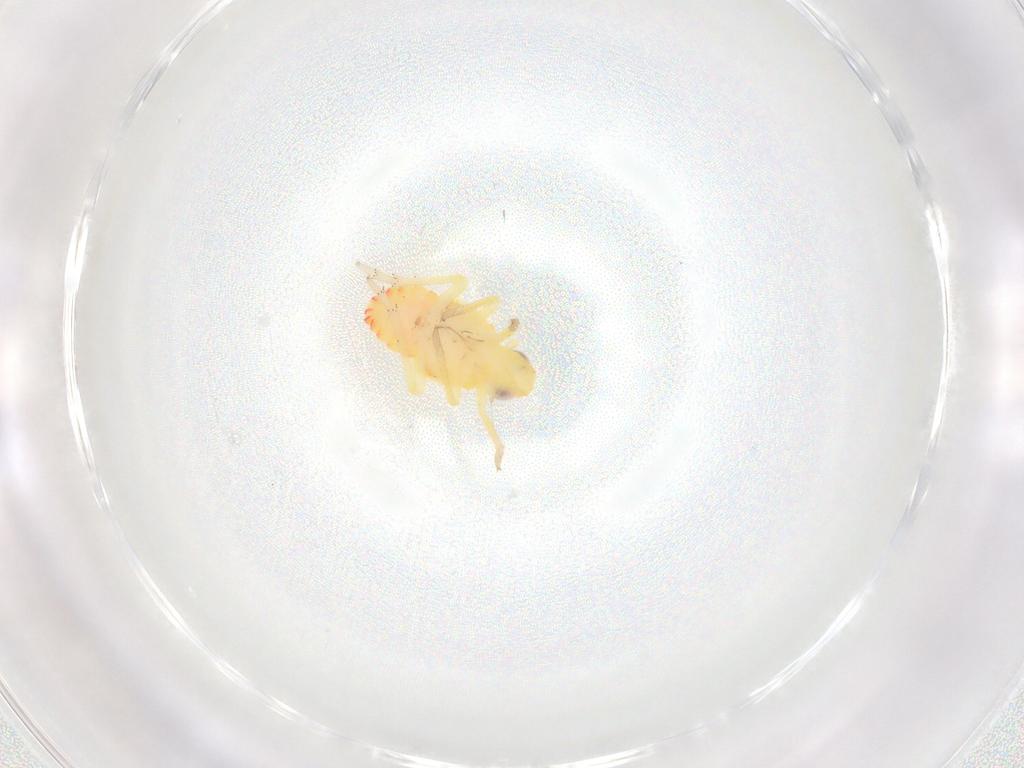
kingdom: Animalia
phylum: Arthropoda
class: Insecta
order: Hemiptera
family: Tropiduchidae
